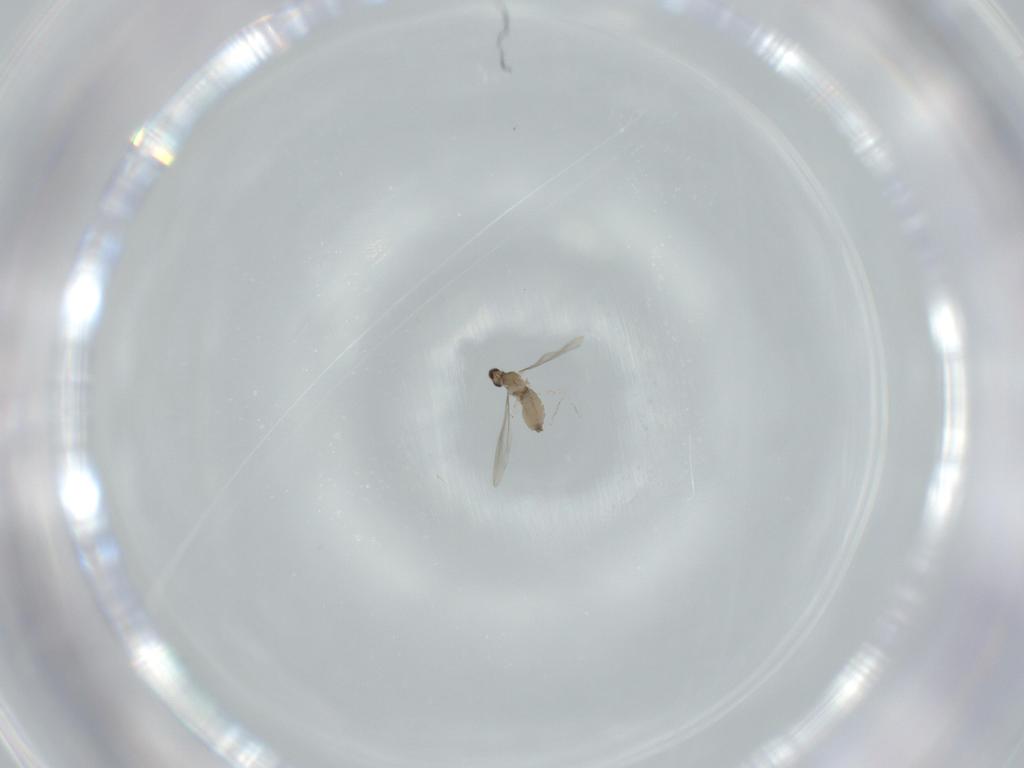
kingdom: Animalia
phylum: Arthropoda
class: Insecta
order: Diptera
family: Cecidomyiidae
